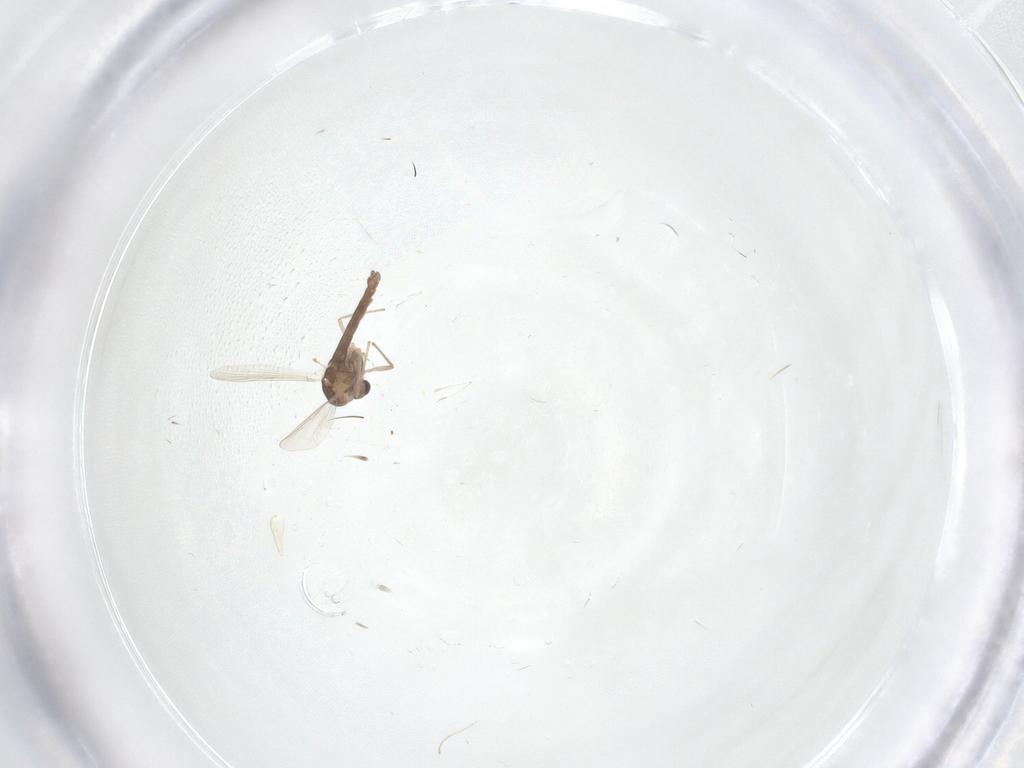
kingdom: Animalia
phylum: Arthropoda
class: Insecta
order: Diptera
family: Chironomidae
